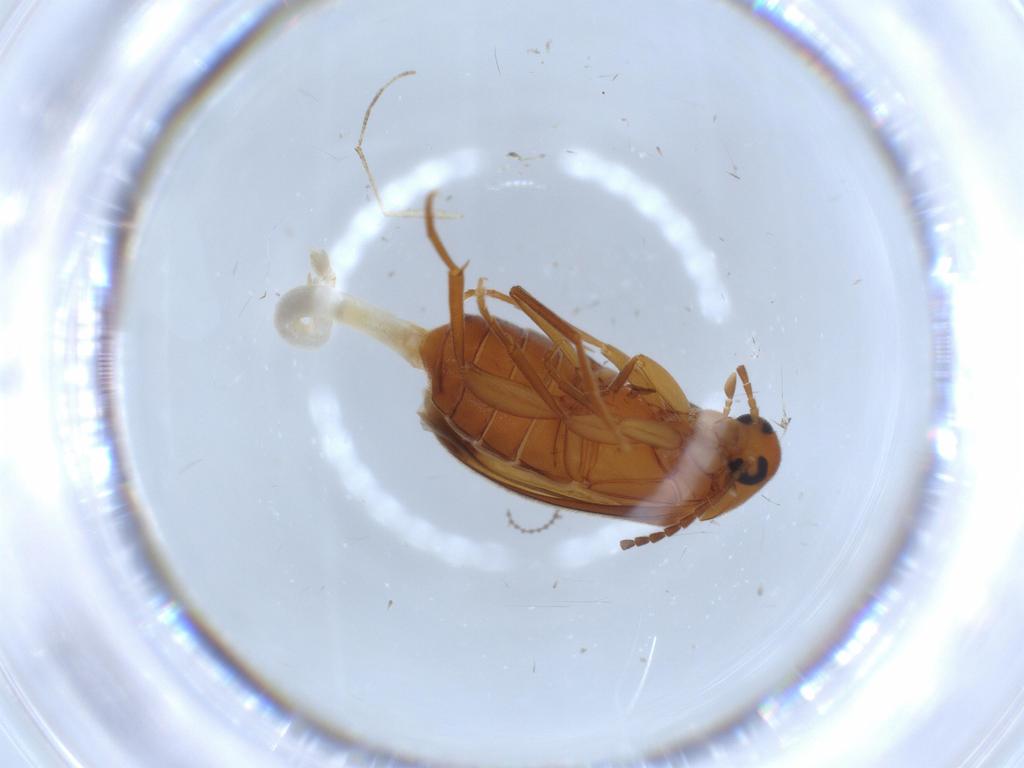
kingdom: Animalia
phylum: Arthropoda
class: Insecta
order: Coleoptera
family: Scraptiidae
